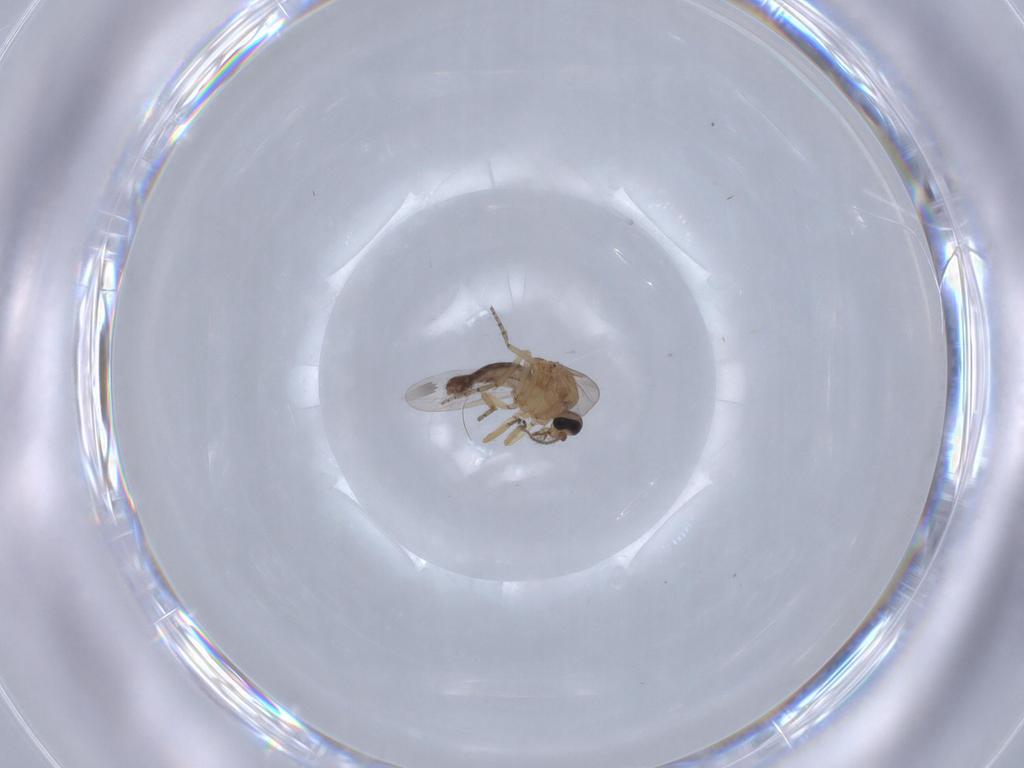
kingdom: Animalia
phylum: Arthropoda
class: Insecta
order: Diptera
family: Ceratopogonidae
